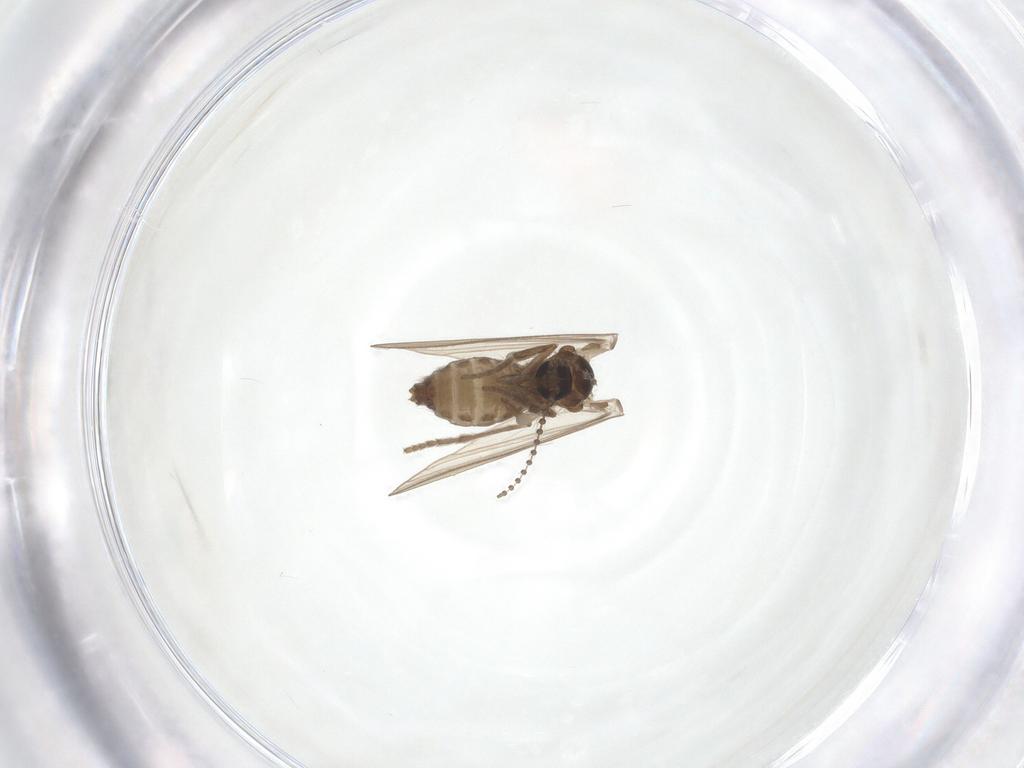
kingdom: Animalia
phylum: Arthropoda
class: Insecta
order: Diptera
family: Psychodidae
